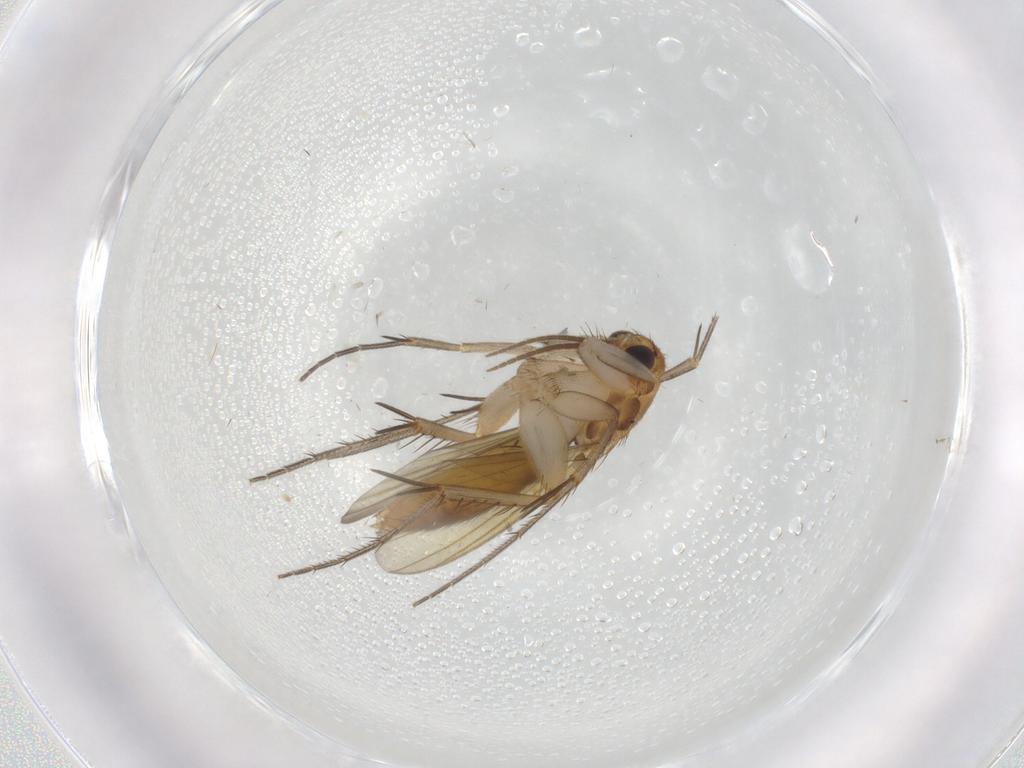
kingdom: Animalia
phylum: Arthropoda
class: Insecta
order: Diptera
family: Mycetophilidae
